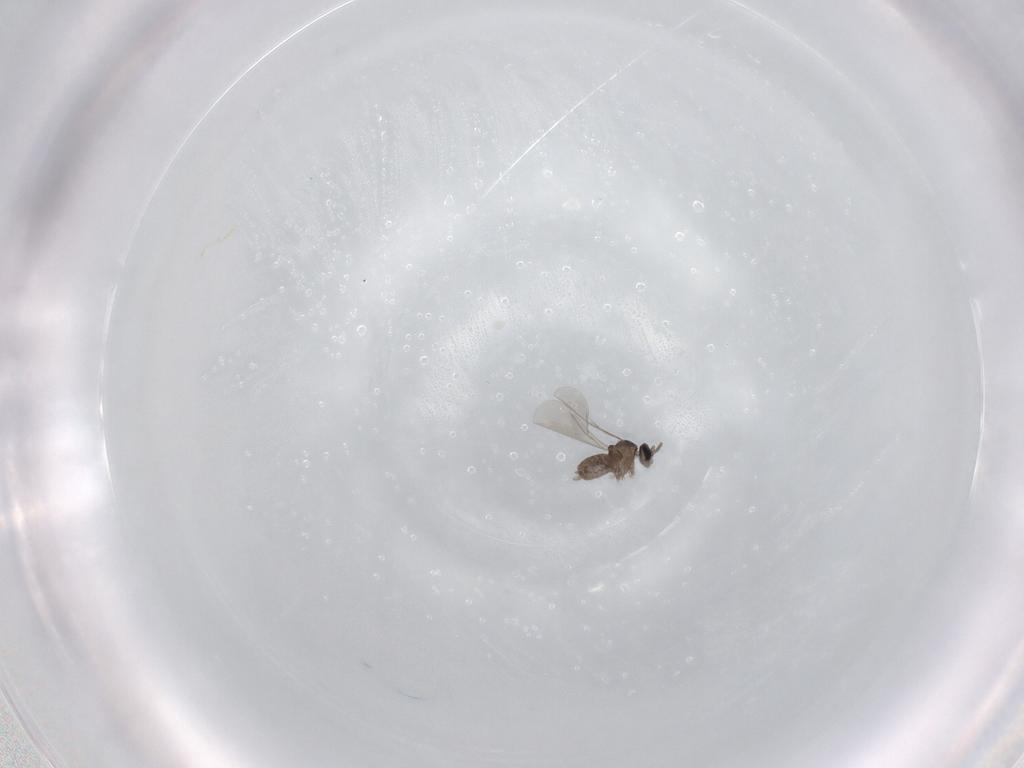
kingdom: Animalia
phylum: Arthropoda
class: Insecta
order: Diptera
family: Cecidomyiidae
